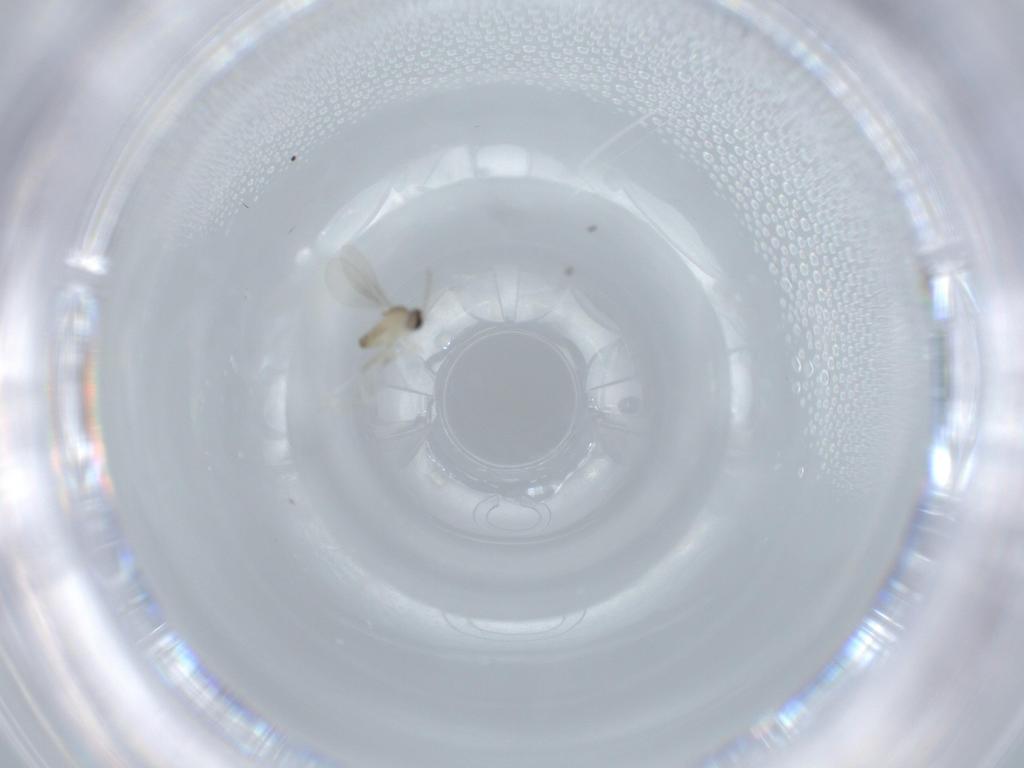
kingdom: Animalia
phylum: Arthropoda
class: Insecta
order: Diptera
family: Cecidomyiidae
